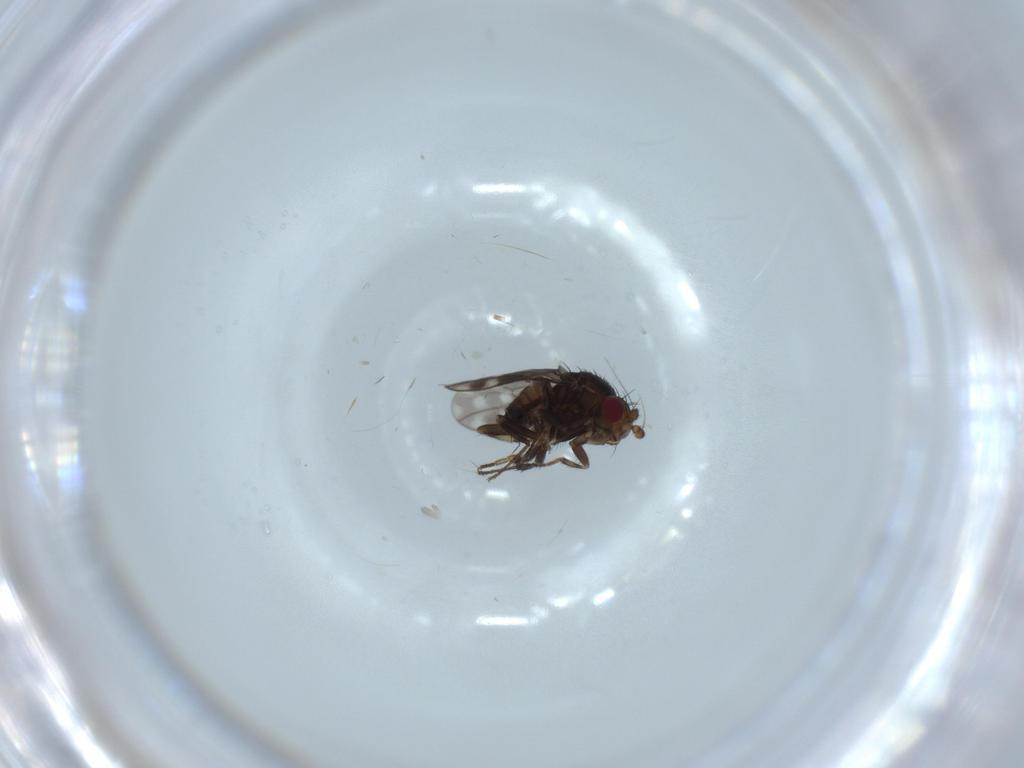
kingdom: Animalia
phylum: Arthropoda
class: Insecta
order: Diptera
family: Sphaeroceridae
